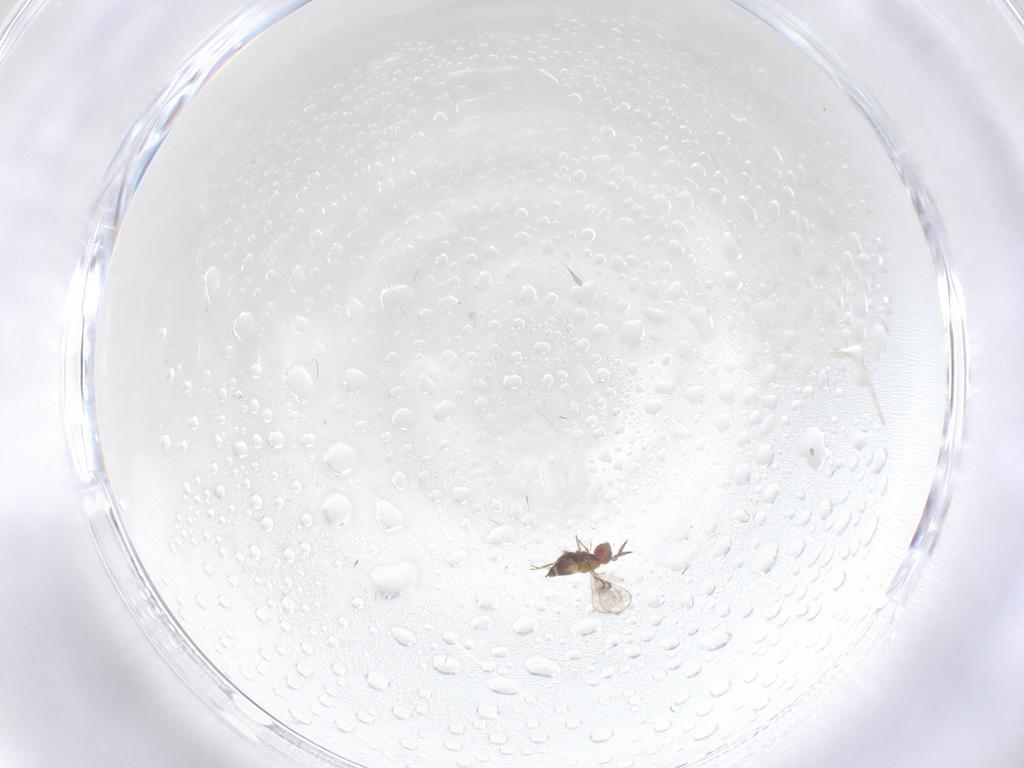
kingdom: Animalia
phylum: Arthropoda
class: Insecta
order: Hymenoptera
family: Trichogrammatidae
